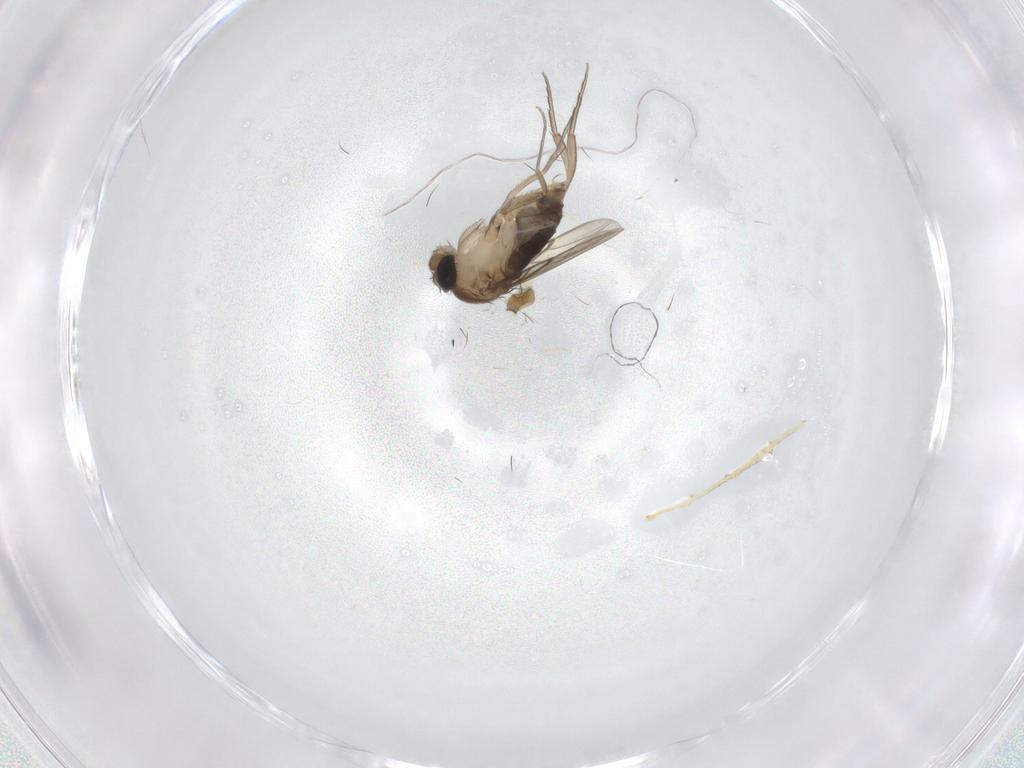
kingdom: Animalia
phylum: Arthropoda
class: Insecta
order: Diptera
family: Phoridae
